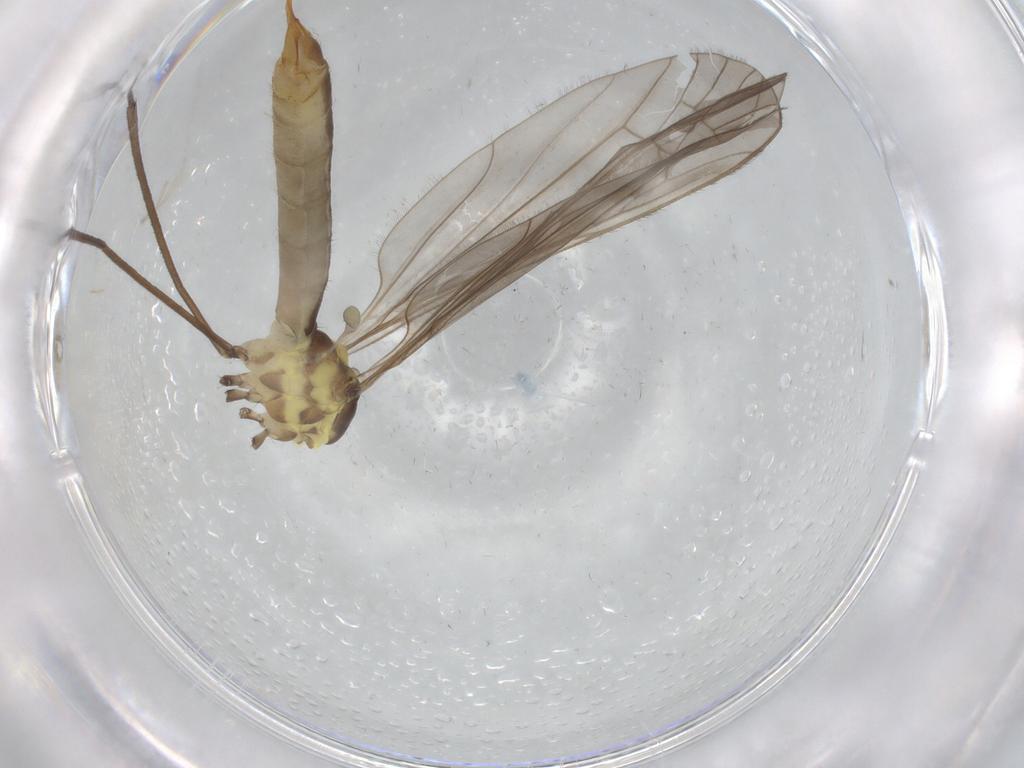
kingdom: Animalia
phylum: Arthropoda
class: Insecta
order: Diptera
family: Limoniidae
